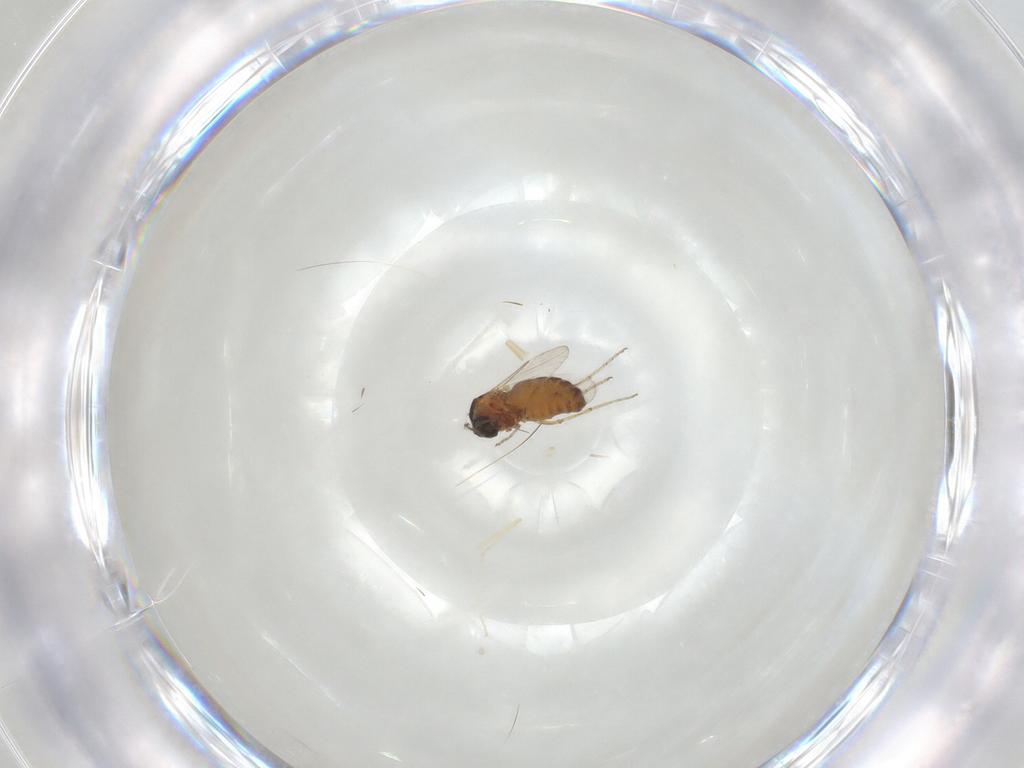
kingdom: Animalia
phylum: Arthropoda
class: Insecta
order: Diptera
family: Ceratopogonidae
